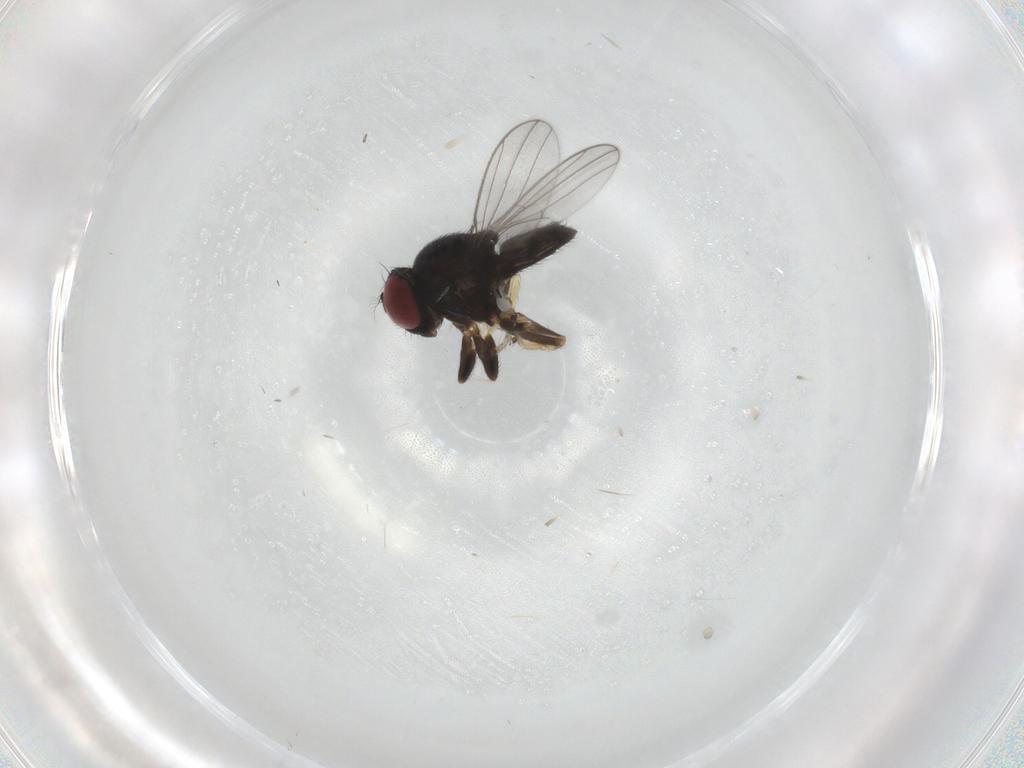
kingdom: Animalia
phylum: Arthropoda
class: Insecta
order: Diptera
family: Ephydridae
